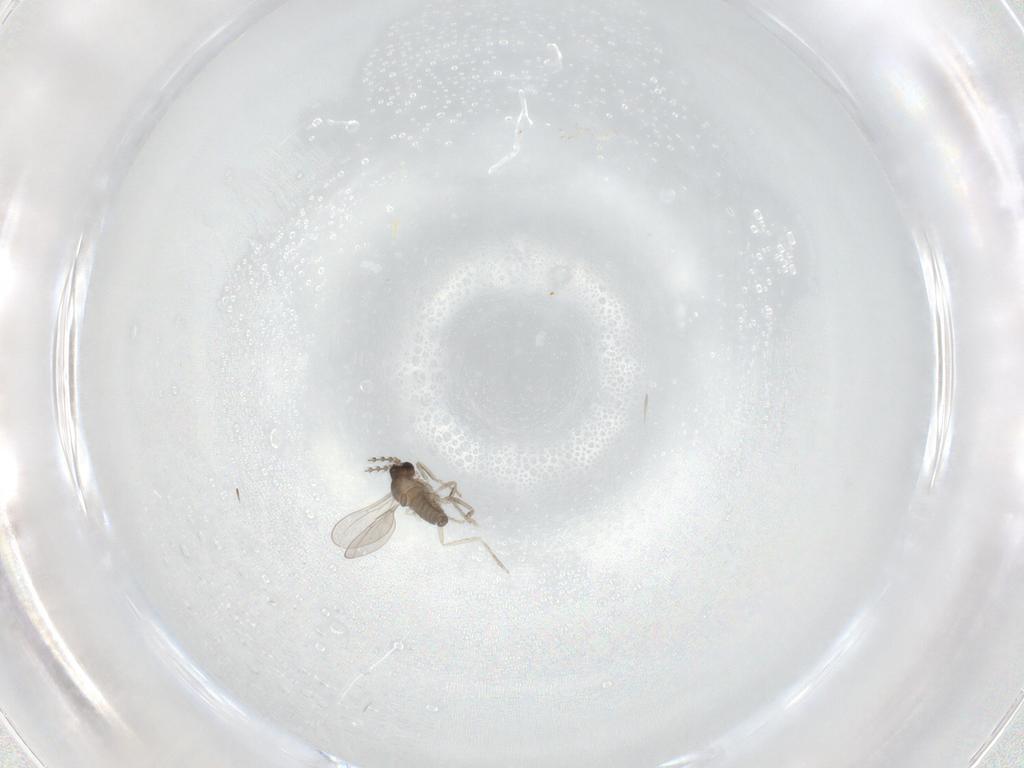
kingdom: Animalia
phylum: Arthropoda
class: Insecta
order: Diptera
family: Cecidomyiidae
